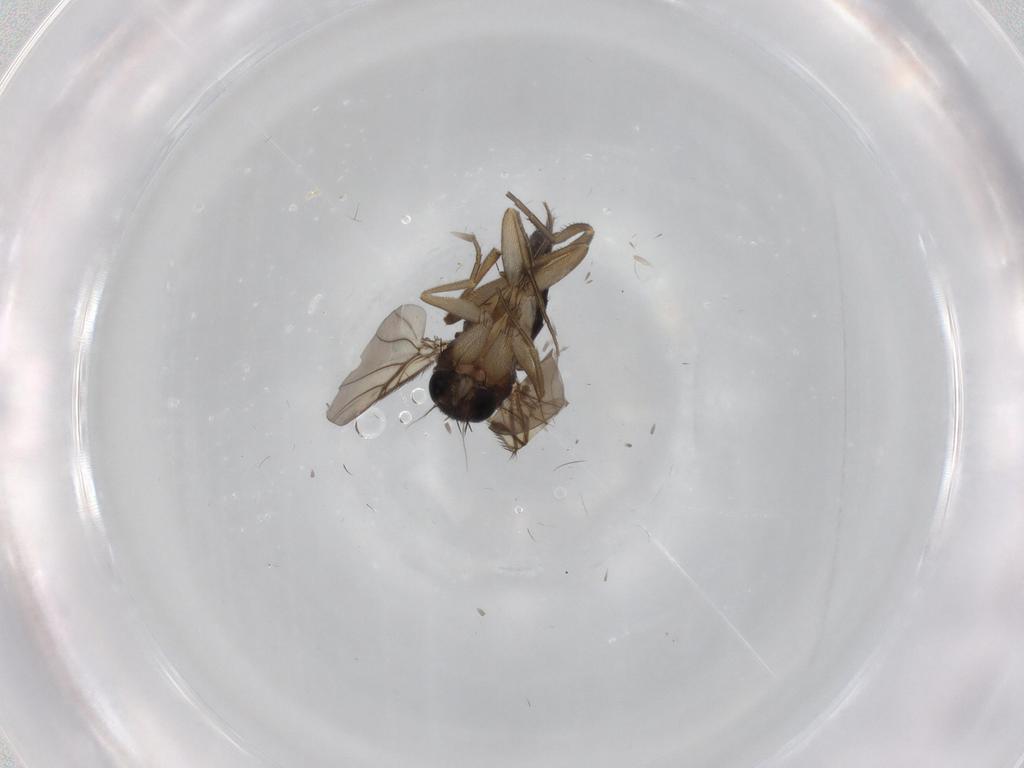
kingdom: Animalia
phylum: Arthropoda
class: Insecta
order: Diptera
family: Phoridae
